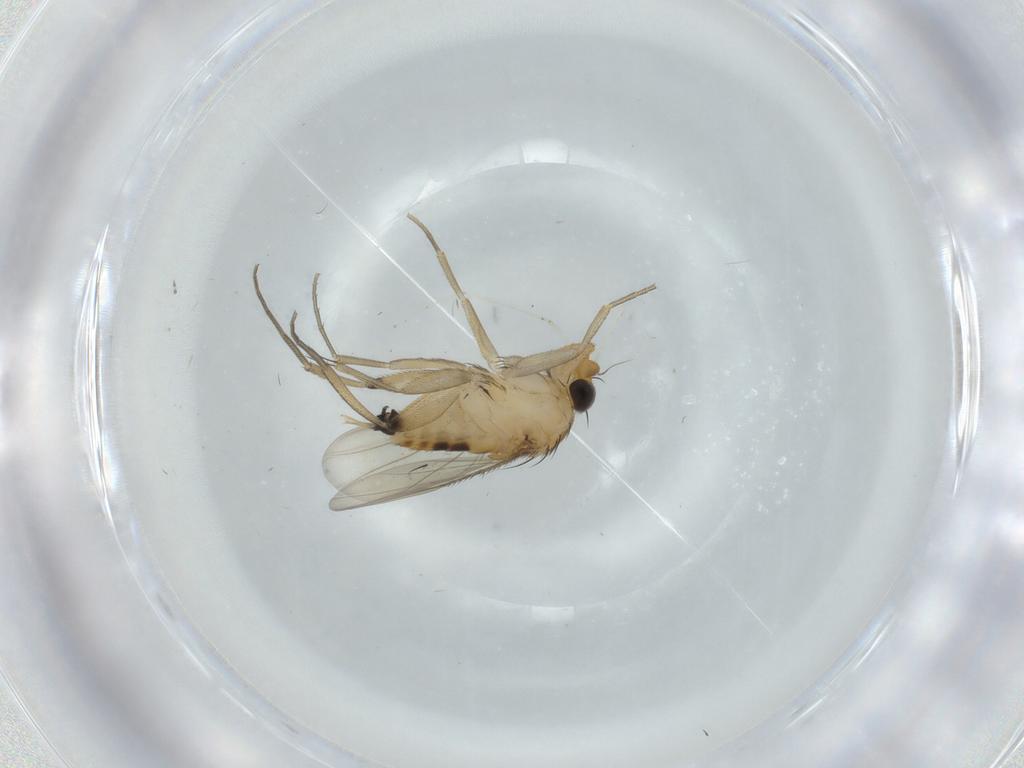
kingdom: Animalia
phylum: Arthropoda
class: Insecta
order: Diptera
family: Phoridae
